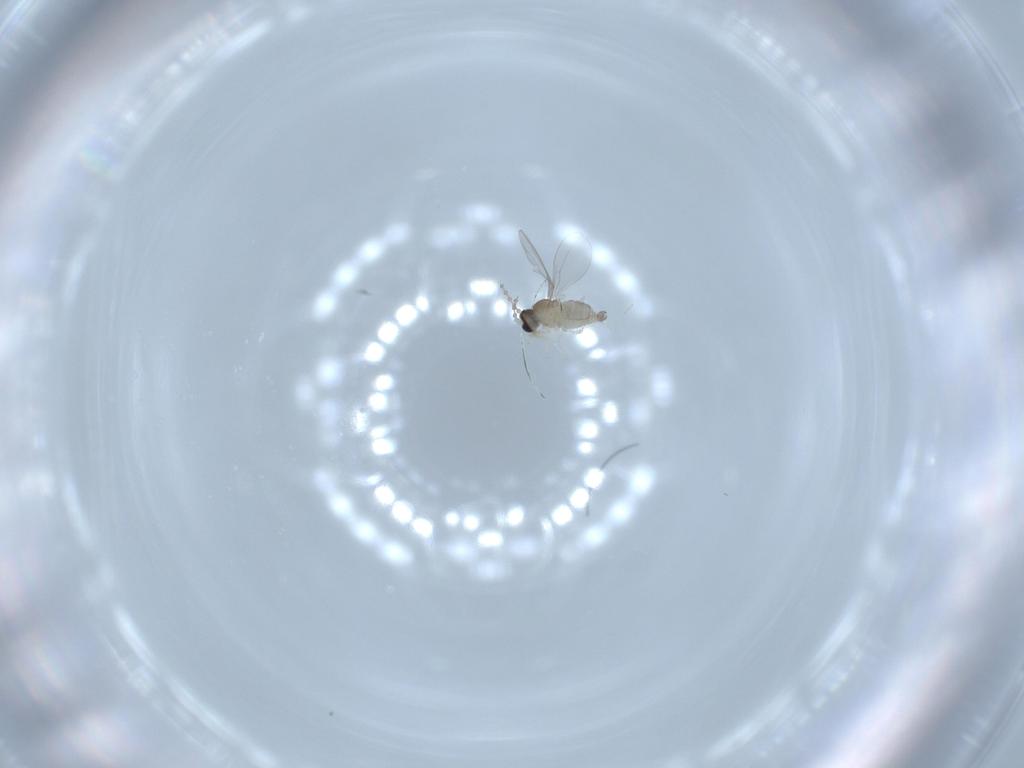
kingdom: Animalia
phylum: Arthropoda
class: Insecta
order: Diptera
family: Cecidomyiidae
